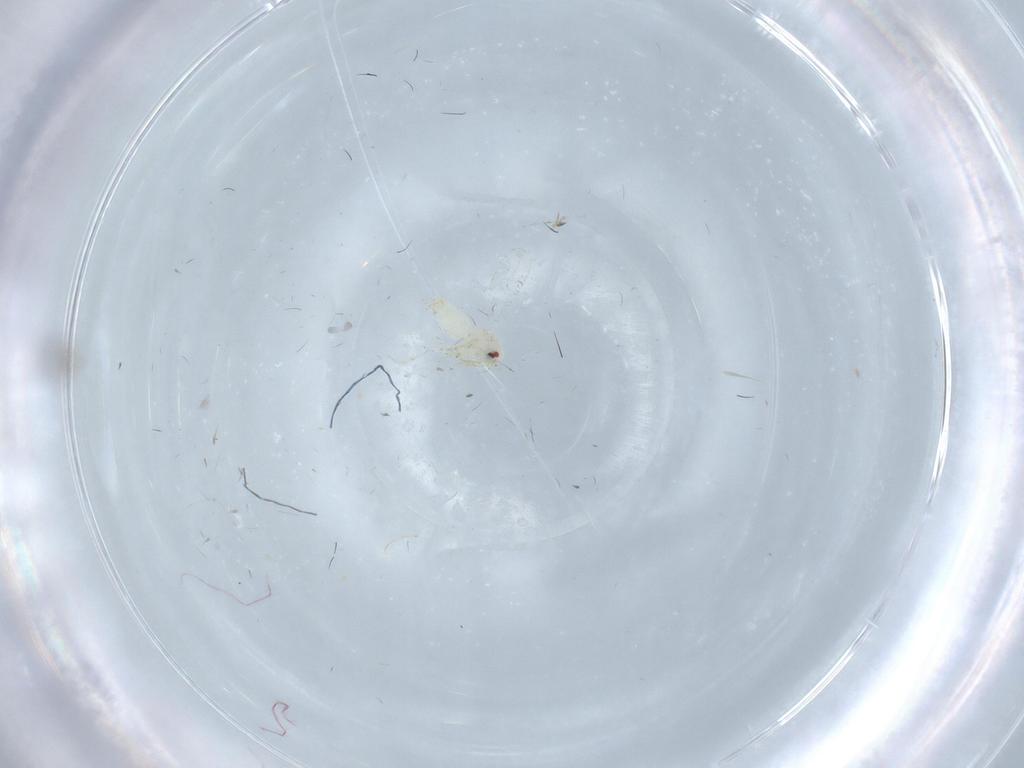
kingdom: Animalia
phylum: Arthropoda
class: Insecta
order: Hemiptera
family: Aleyrodidae
